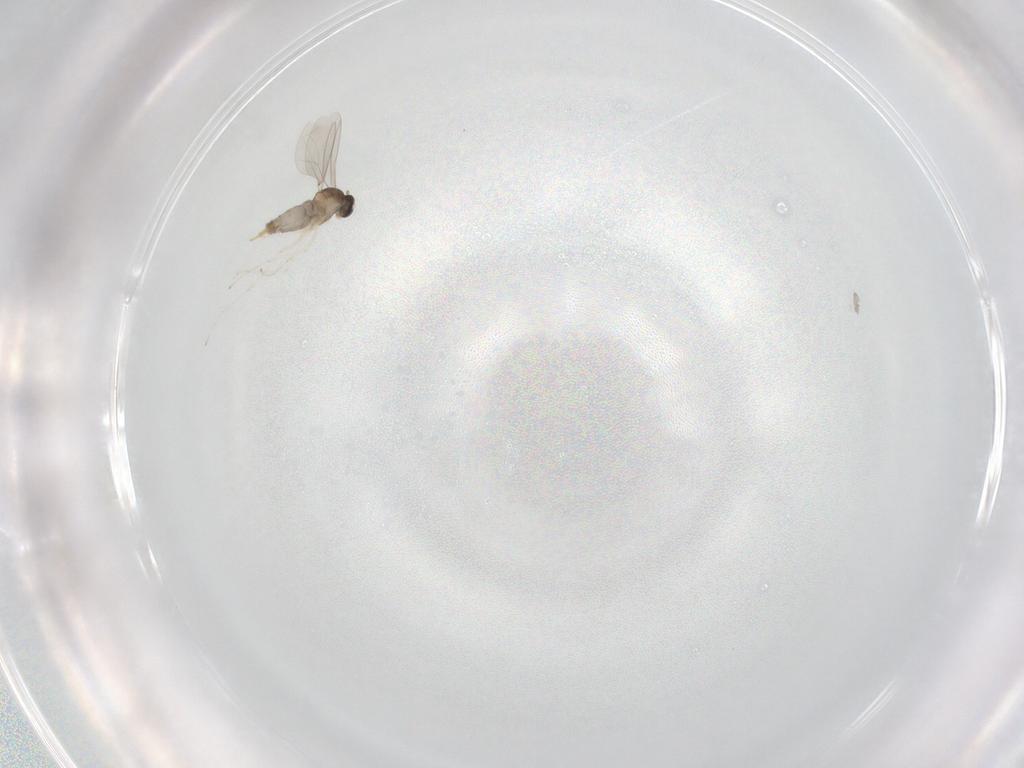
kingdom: Animalia
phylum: Arthropoda
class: Insecta
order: Diptera
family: Cecidomyiidae
